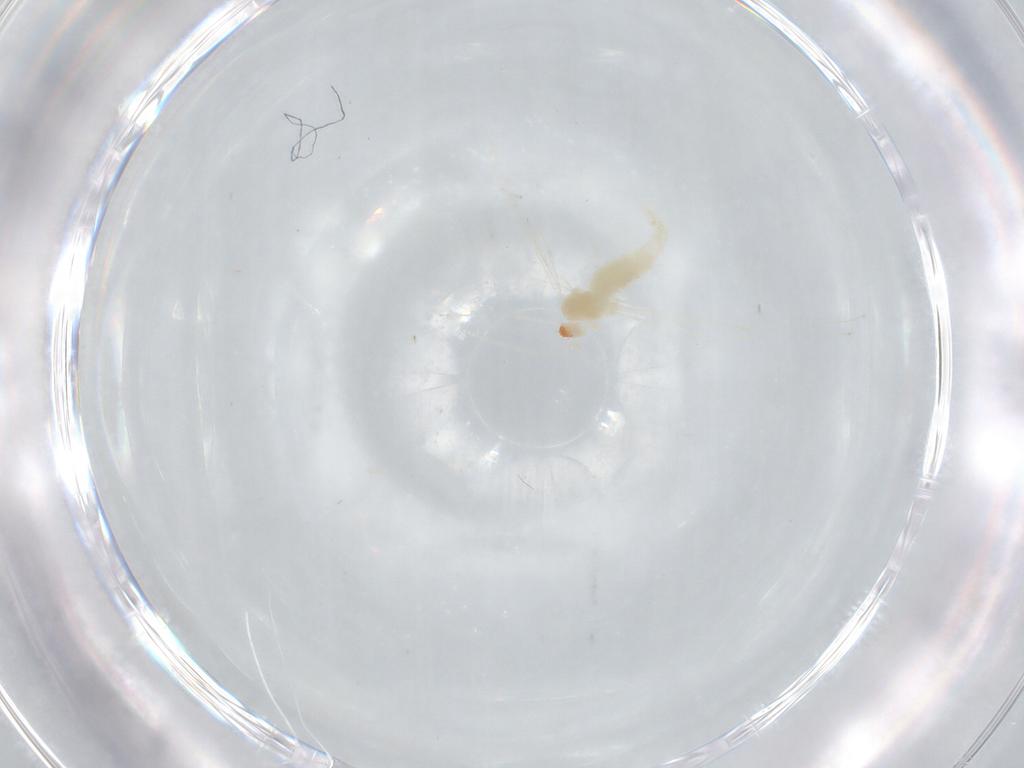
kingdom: Animalia
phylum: Arthropoda
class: Insecta
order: Diptera
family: Cecidomyiidae
